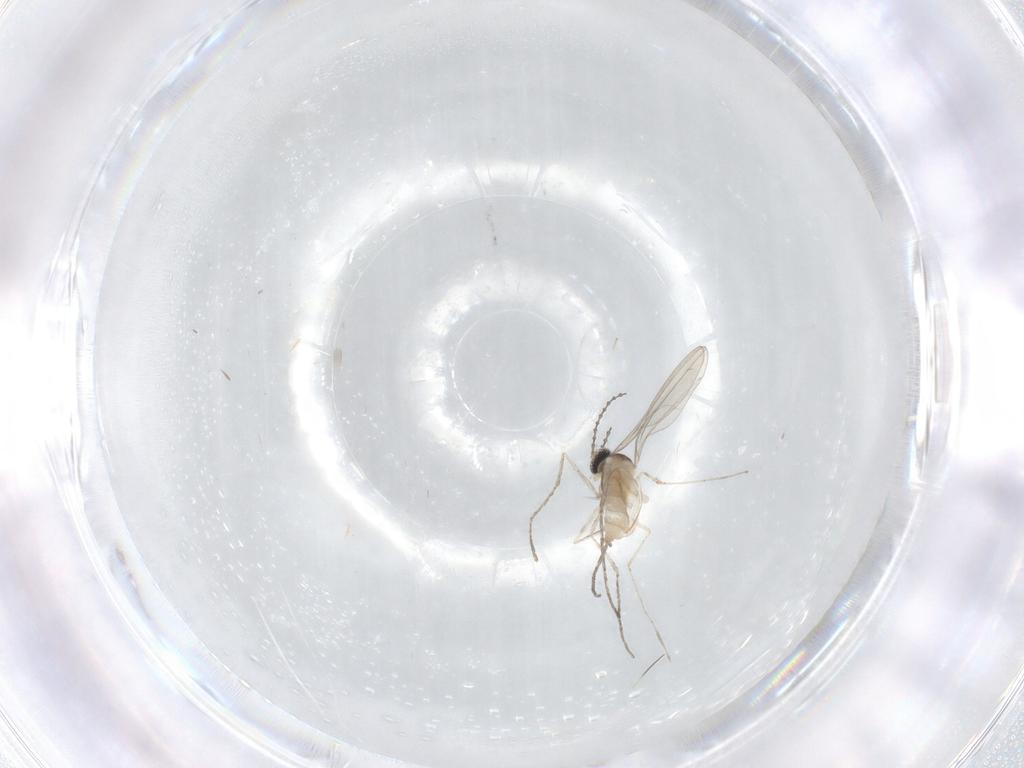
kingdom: Animalia
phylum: Arthropoda
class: Insecta
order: Diptera
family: Cecidomyiidae
